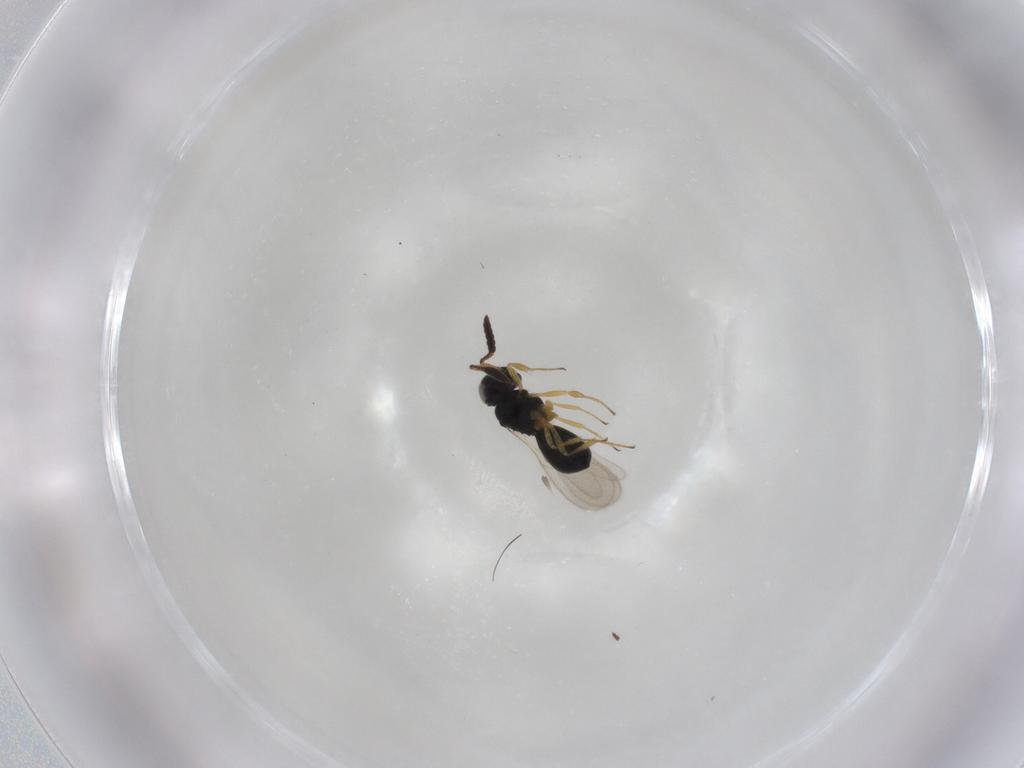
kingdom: Animalia
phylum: Arthropoda
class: Insecta
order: Hymenoptera
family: Scelionidae
